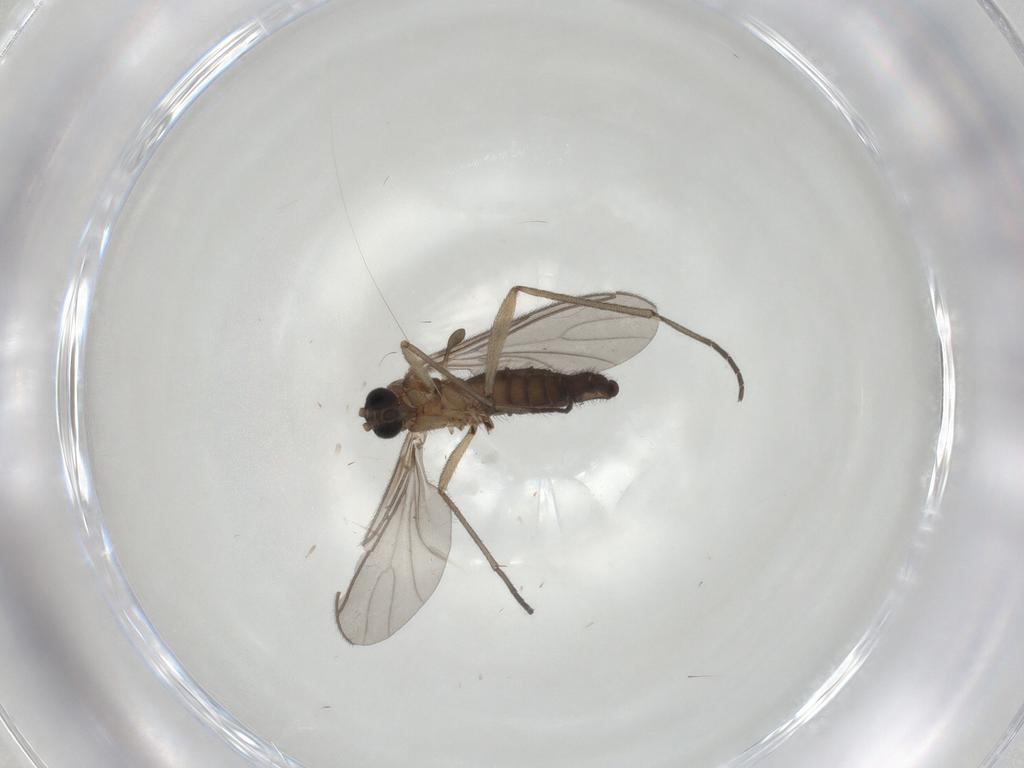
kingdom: Animalia
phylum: Arthropoda
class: Insecta
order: Diptera
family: Sciaridae
